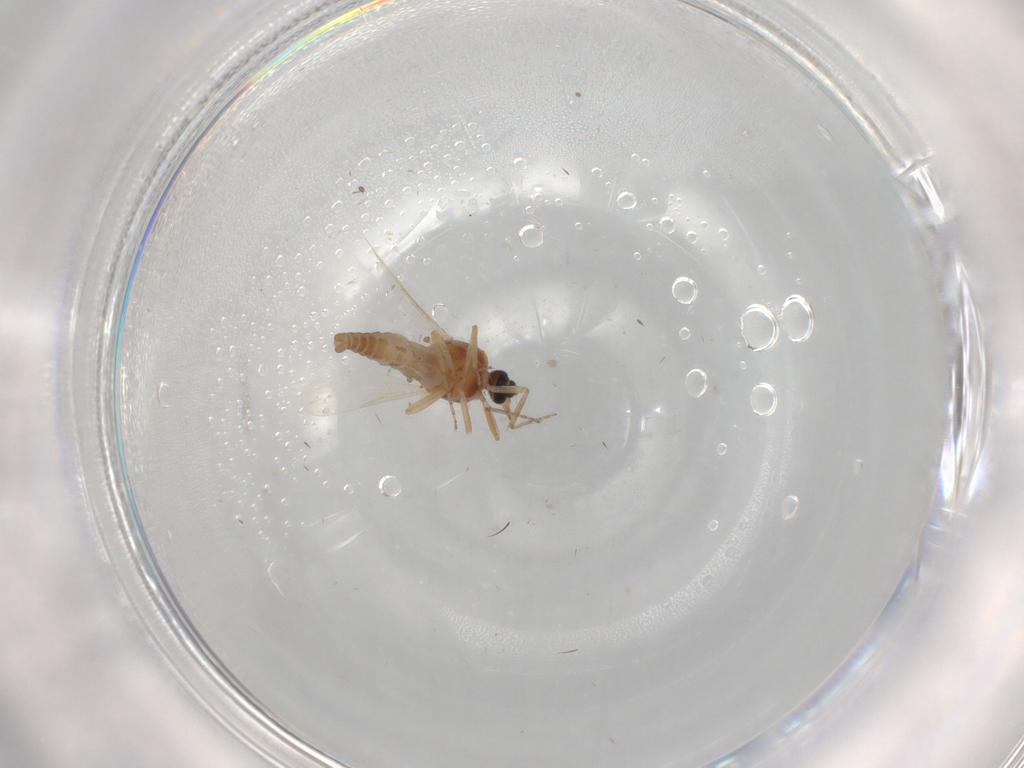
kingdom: Animalia
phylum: Arthropoda
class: Insecta
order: Diptera
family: Ceratopogonidae
